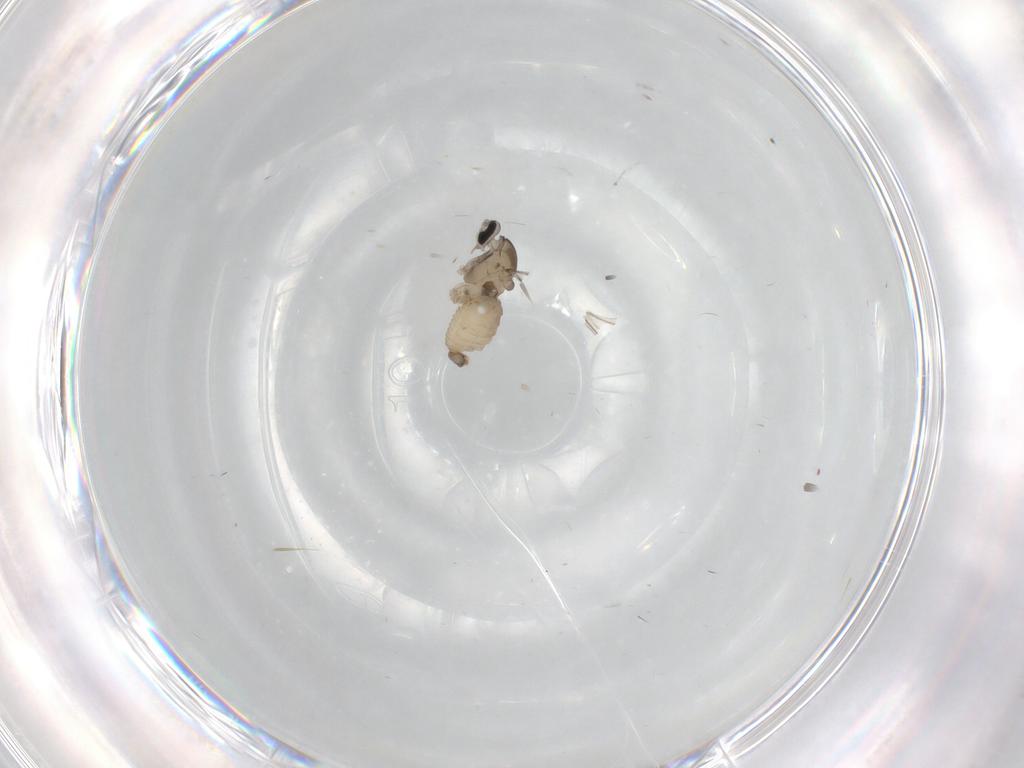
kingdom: Animalia
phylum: Arthropoda
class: Insecta
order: Diptera
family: Cecidomyiidae
